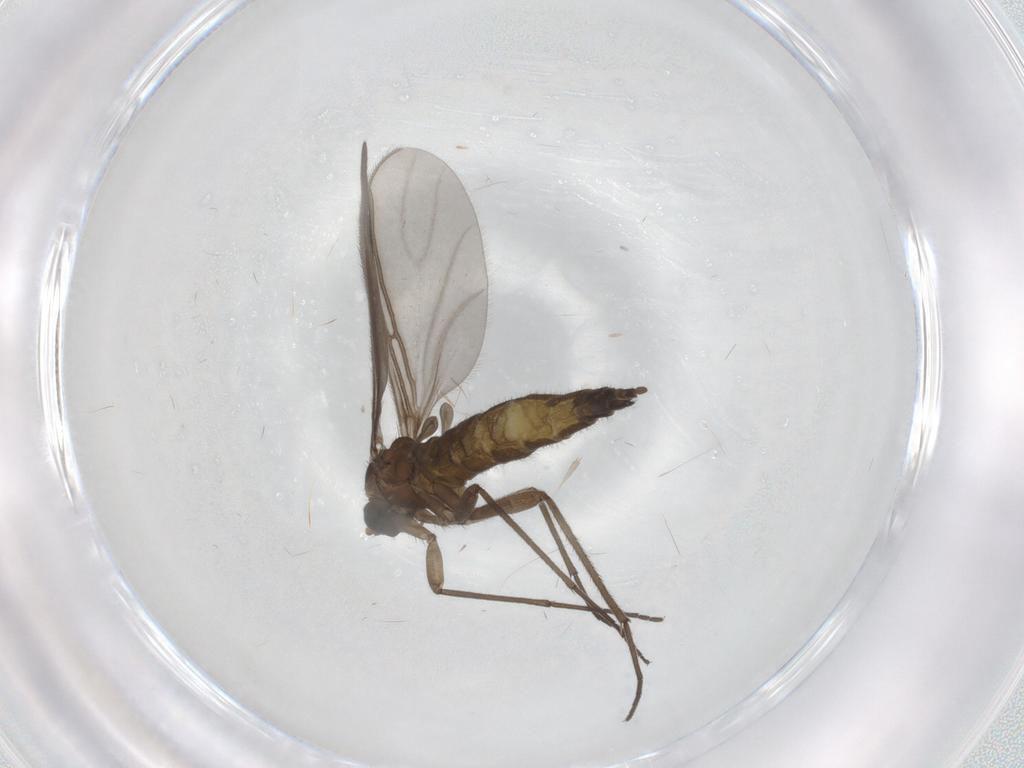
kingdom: Animalia
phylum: Arthropoda
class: Insecta
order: Diptera
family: Sciaridae
